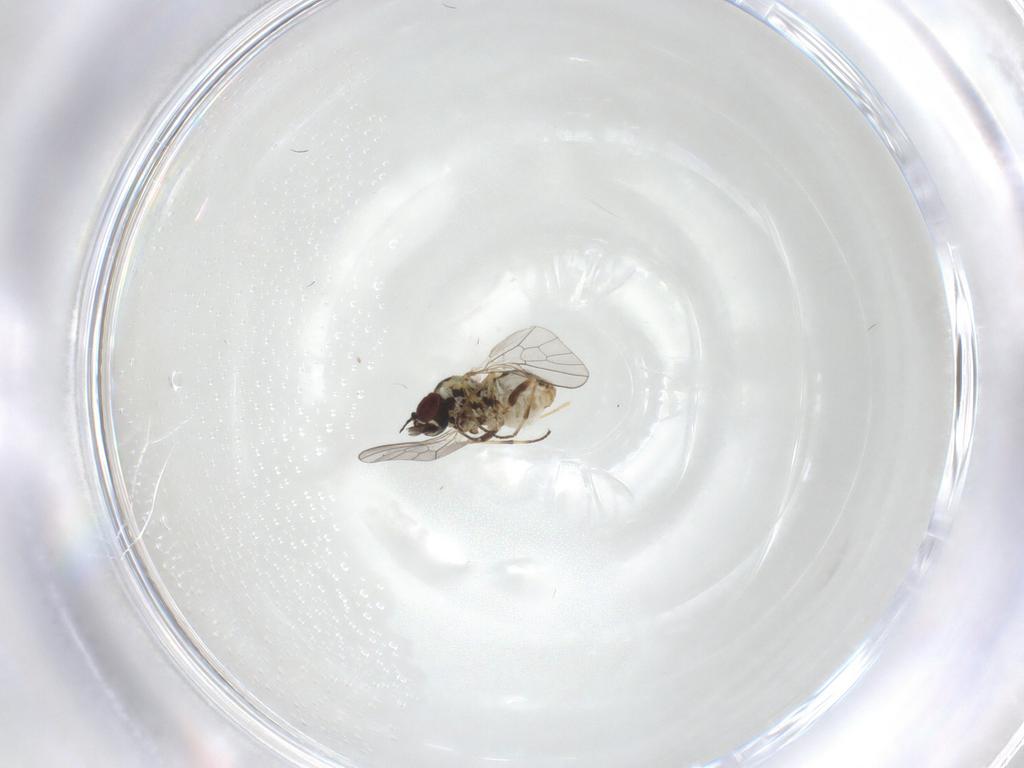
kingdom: Animalia
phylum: Arthropoda
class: Insecta
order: Diptera
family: Mythicomyiidae
